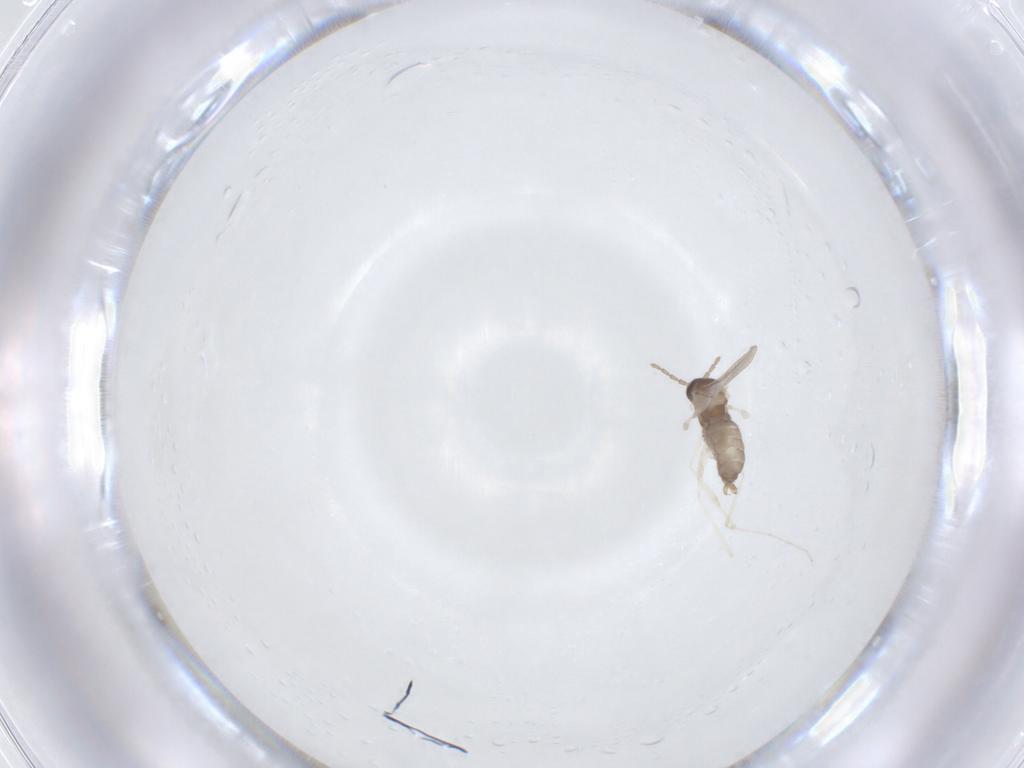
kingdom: Animalia
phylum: Arthropoda
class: Insecta
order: Diptera
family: Cecidomyiidae
